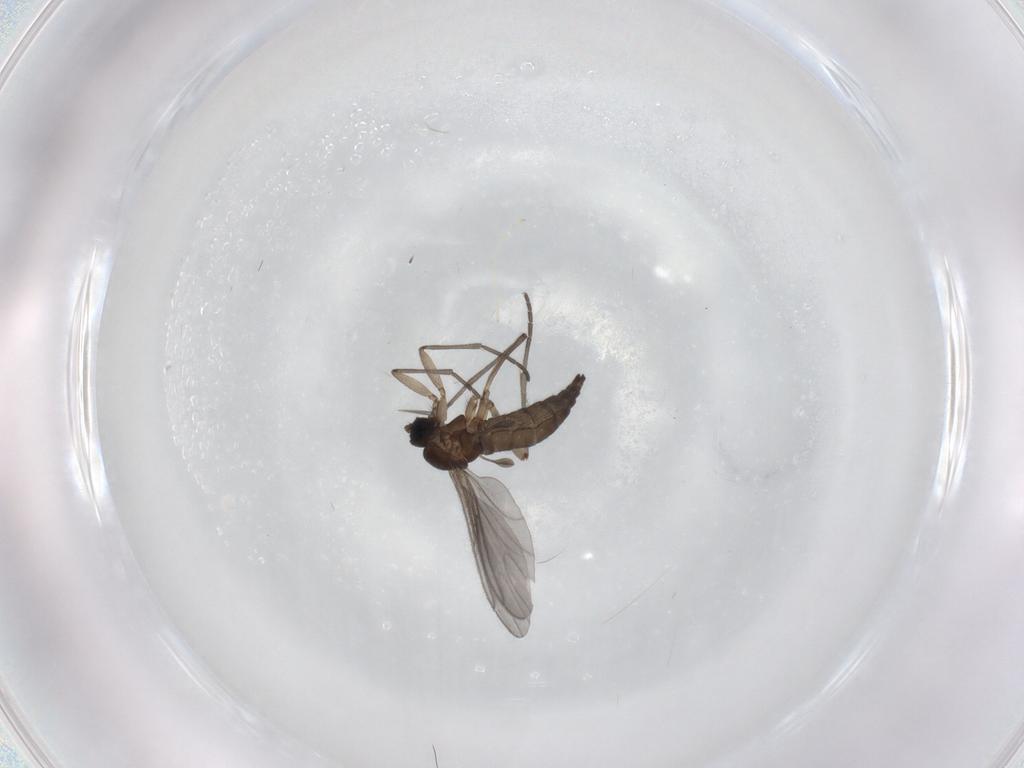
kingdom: Animalia
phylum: Arthropoda
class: Insecta
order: Diptera
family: Sciaridae
